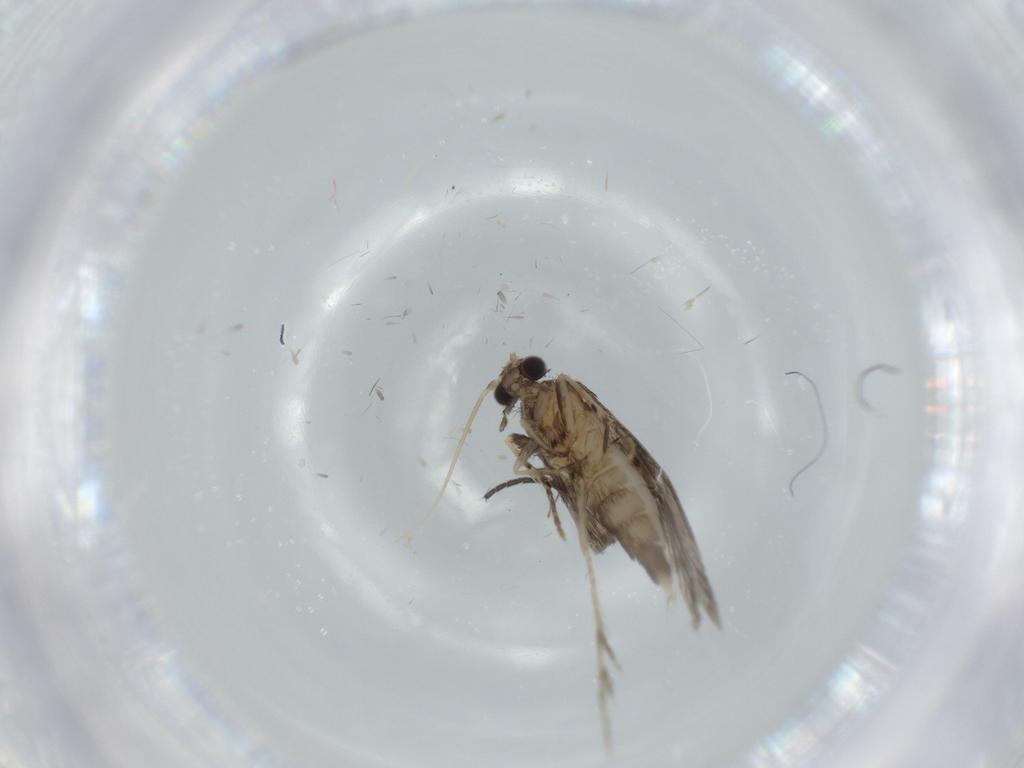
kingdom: Animalia
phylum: Arthropoda
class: Insecta
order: Trichoptera
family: Hydroptilidae
